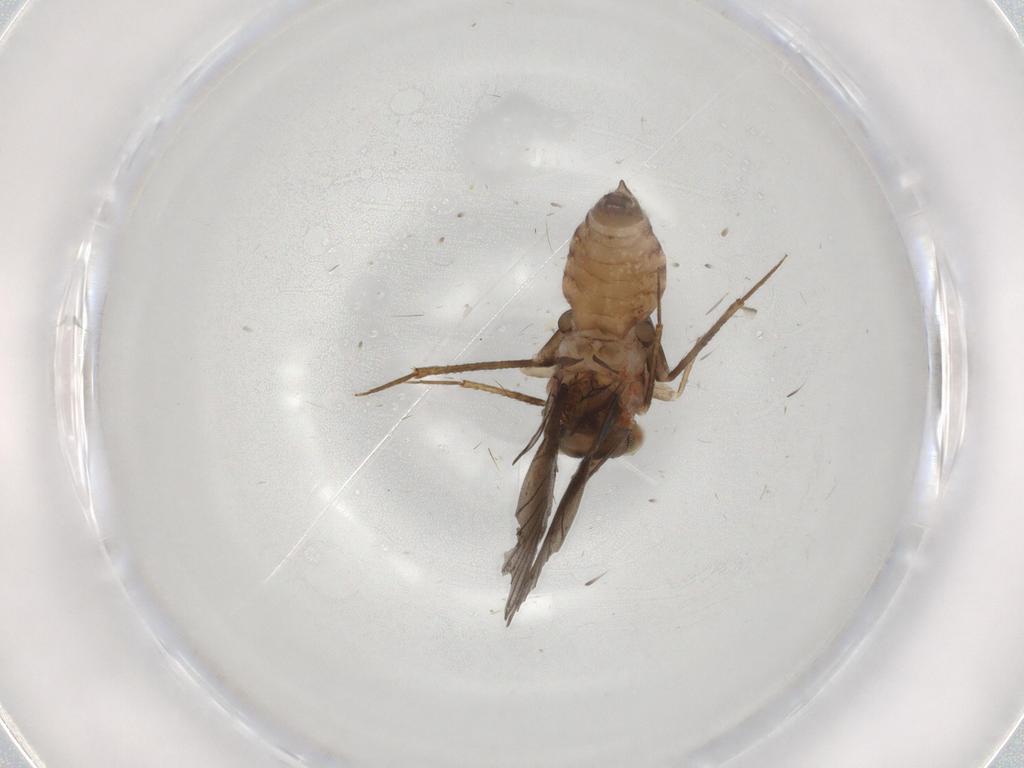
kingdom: Animalia
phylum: Arthropoda
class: Insecta
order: Psocodea
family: Lepidopsocidae
